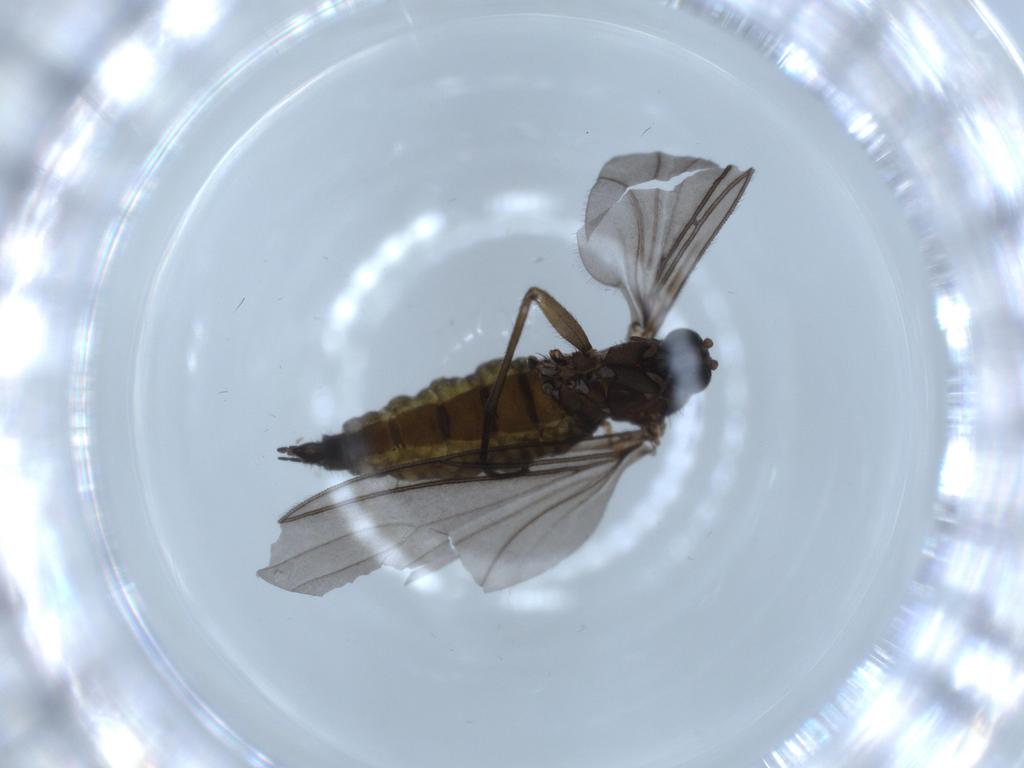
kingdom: Animalia
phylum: Arthropoda
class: Insecta
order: Diptera
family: Sciaridae
